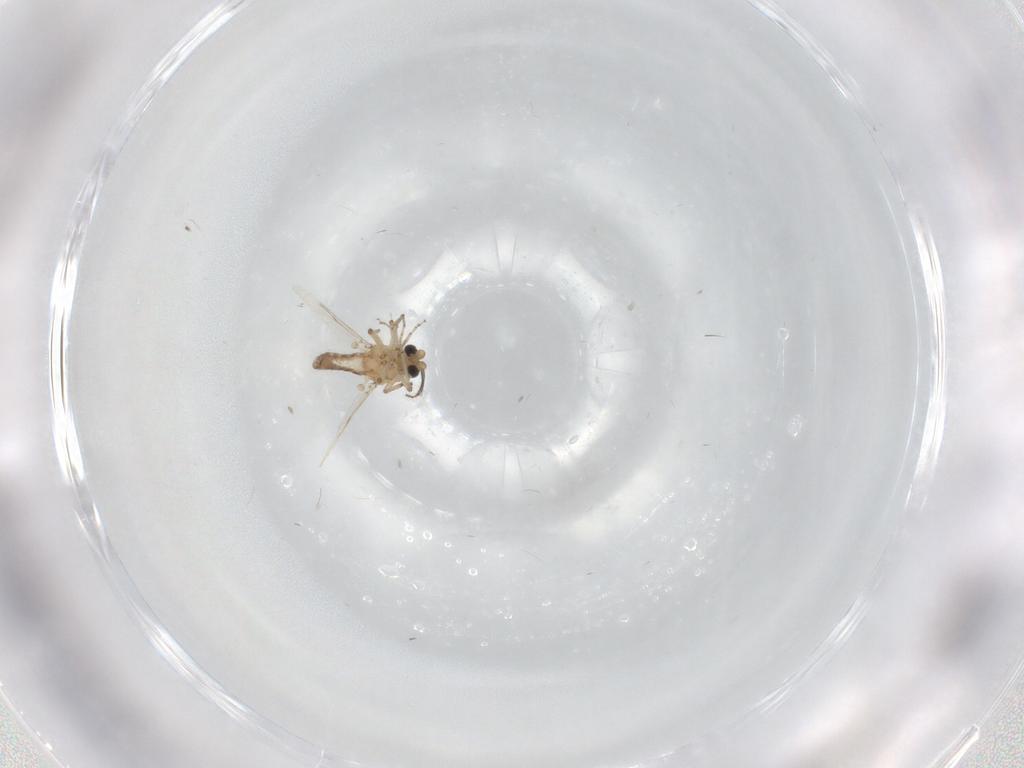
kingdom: Animalia
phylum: Arthropoda
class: Insecta
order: Diptera
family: Ceratopogonidae
